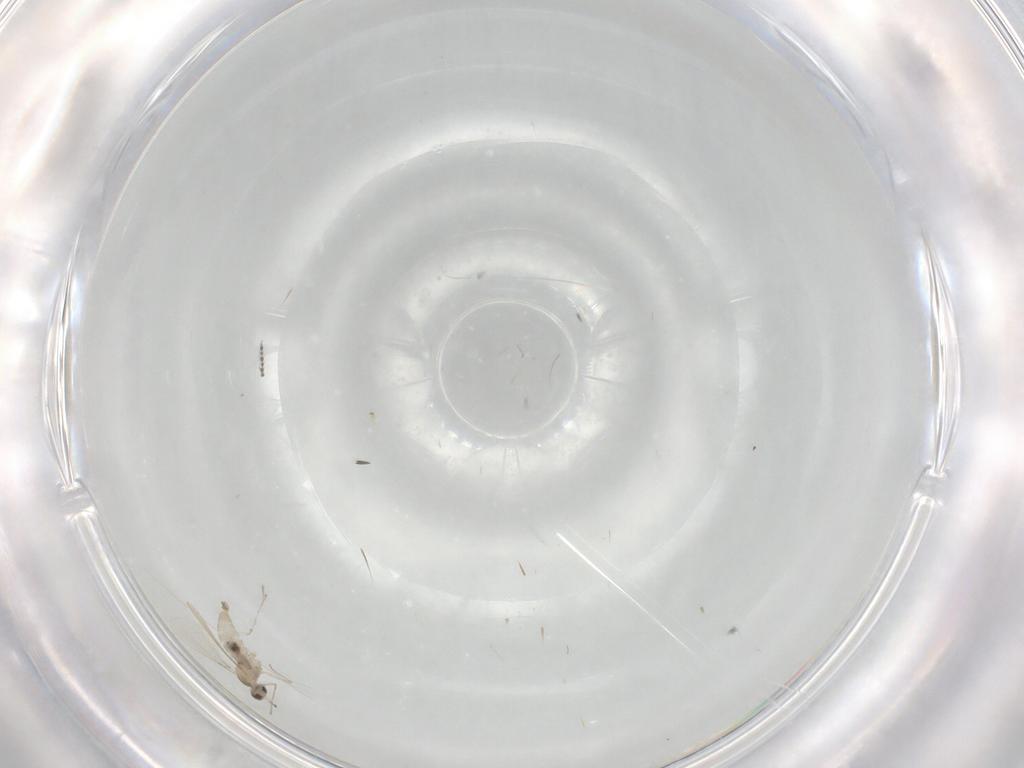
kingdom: Animalia
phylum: Arthropoda
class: Insecta
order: Diptera
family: Cecidomyiidae
